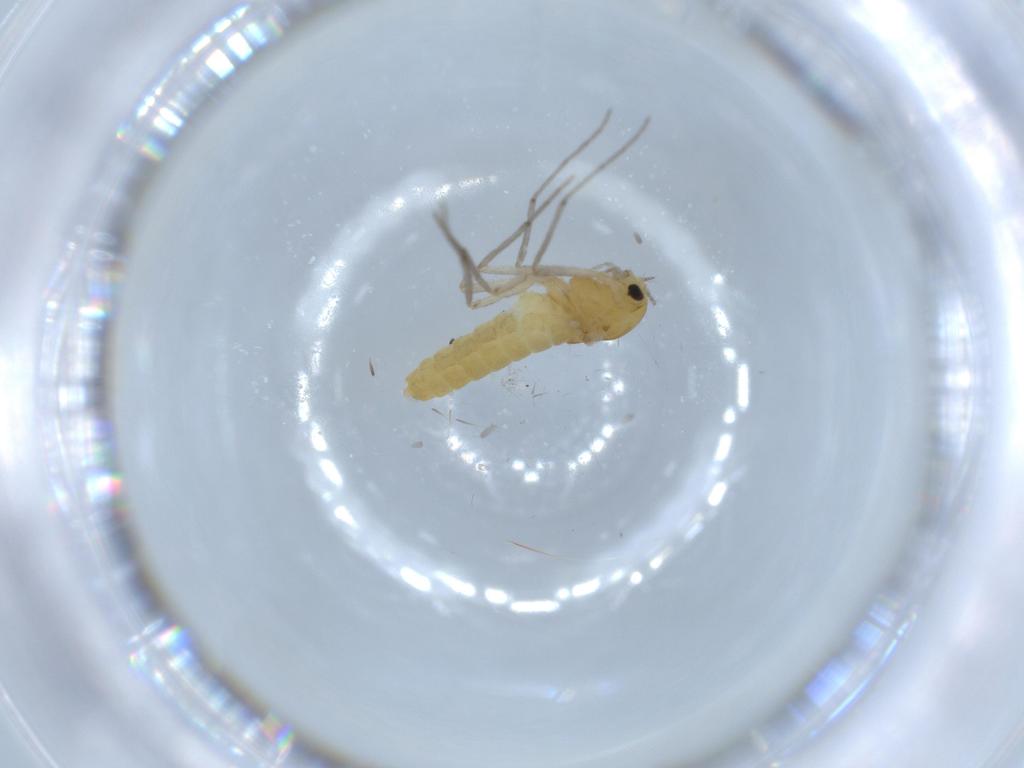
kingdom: Animalia
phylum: Arthropoda
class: Insecta
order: Diptera
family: Chironomidae
